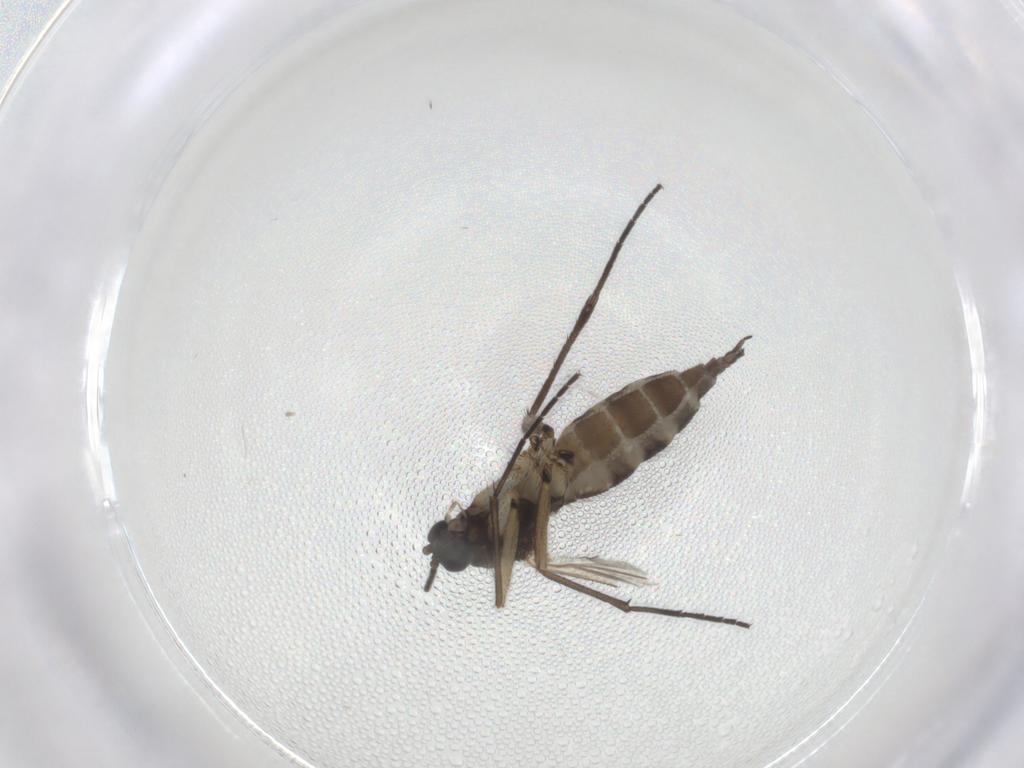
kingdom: Animalia
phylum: Arthropoda
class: Insecta
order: Diptera
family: Sciaridae
